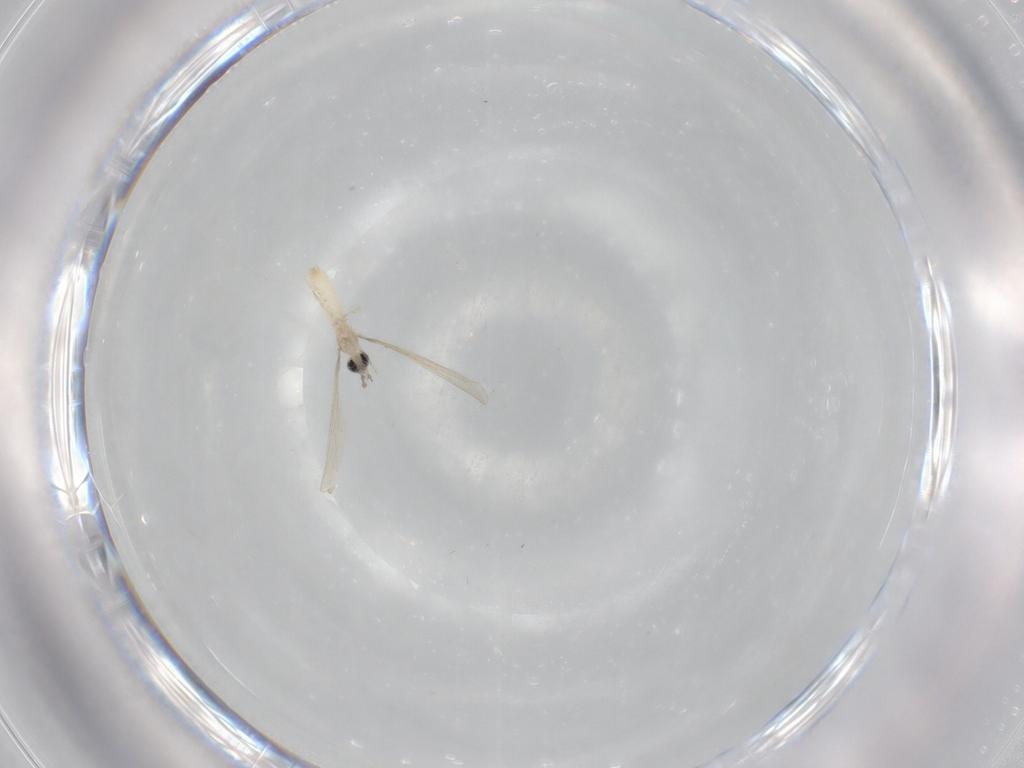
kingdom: Animalia
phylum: Arthropoda
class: Insecta
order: Diptera
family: Cecidomyiidae
